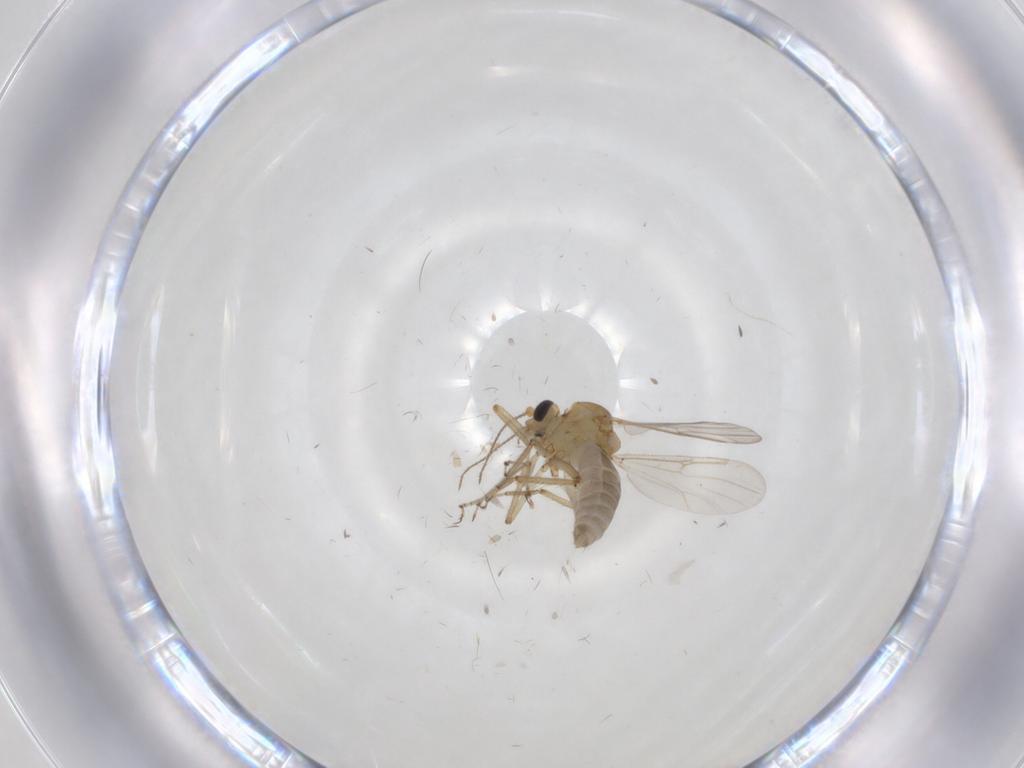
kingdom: Animalia
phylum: Arthropoda
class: Insecta
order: Diptera
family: Ceratopogonidae
